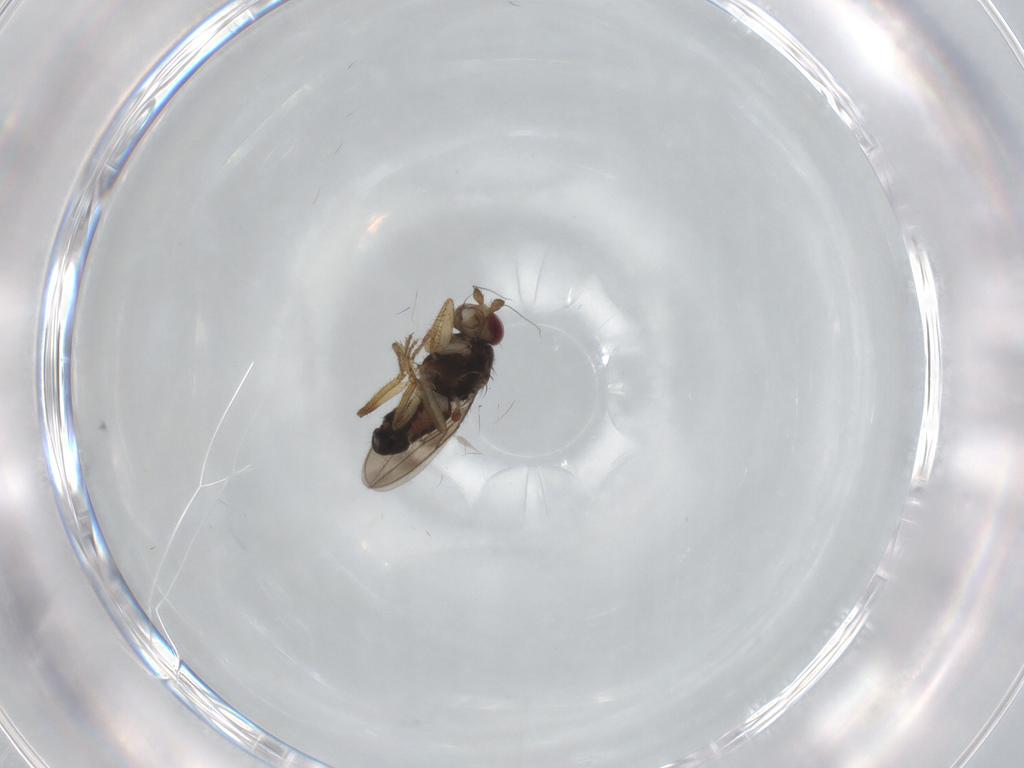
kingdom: Animalia
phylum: Arthropoda
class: Insecta
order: Diptera
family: Sphaeroceridae
